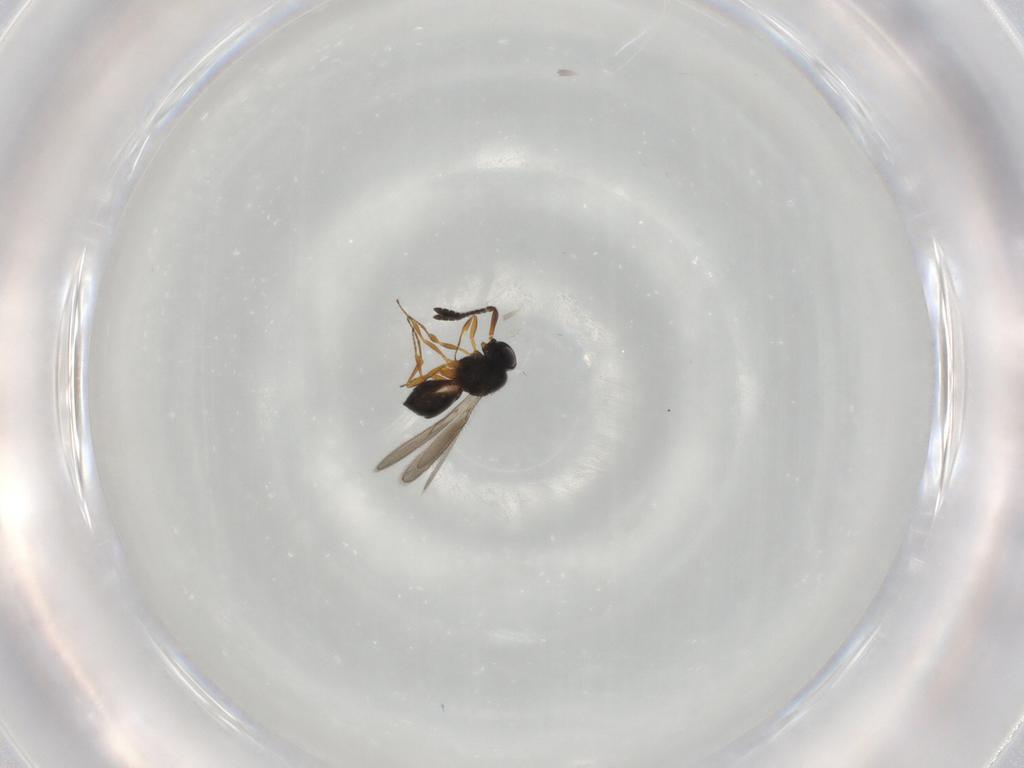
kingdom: Animalia
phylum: Arthropoda
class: Insecta
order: Hymenoptera
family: Scelionidae
